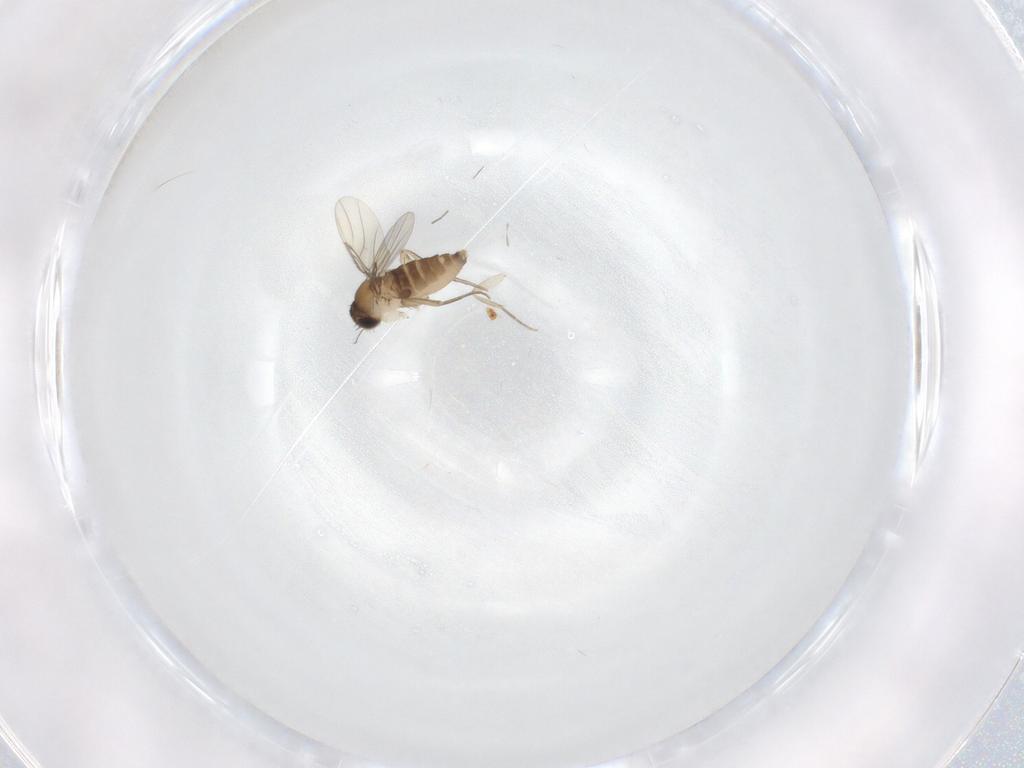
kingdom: Animalia
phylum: Arthropoda
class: Insecta
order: Diptera
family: Phoridae
